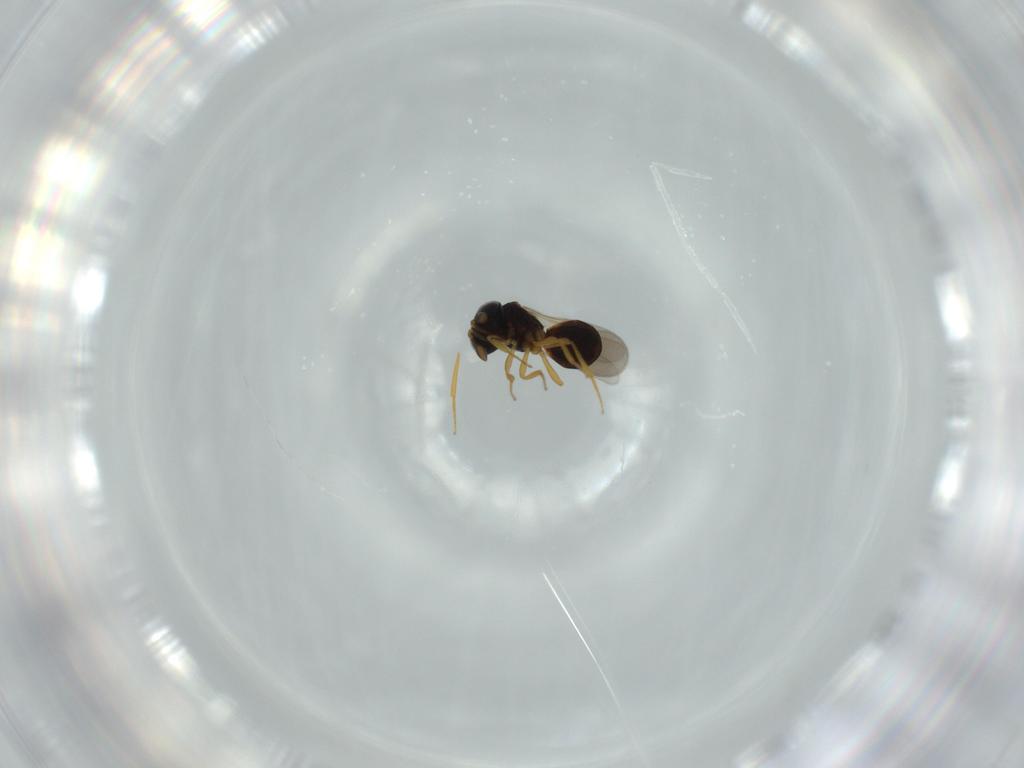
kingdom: Animalia
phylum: Arthropoda
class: Insecta
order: Hymenoptera
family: Scelionidae
